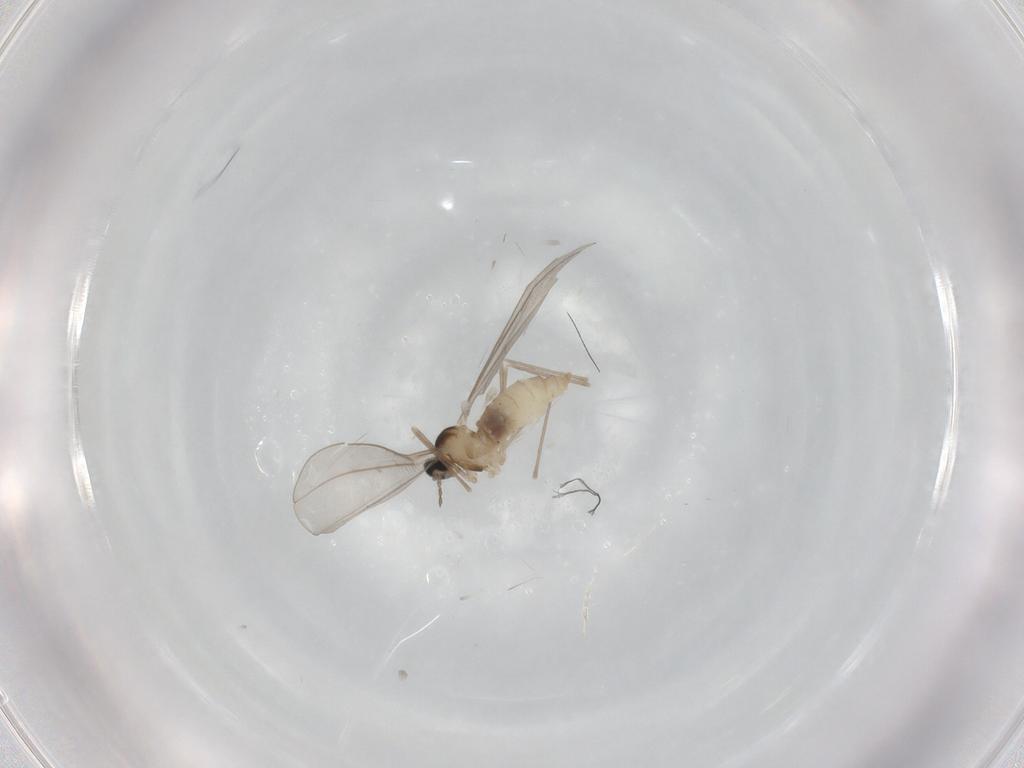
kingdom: Animalia
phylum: Arthropoda
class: Insecta
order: Diptera
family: Cecidomyiidae
